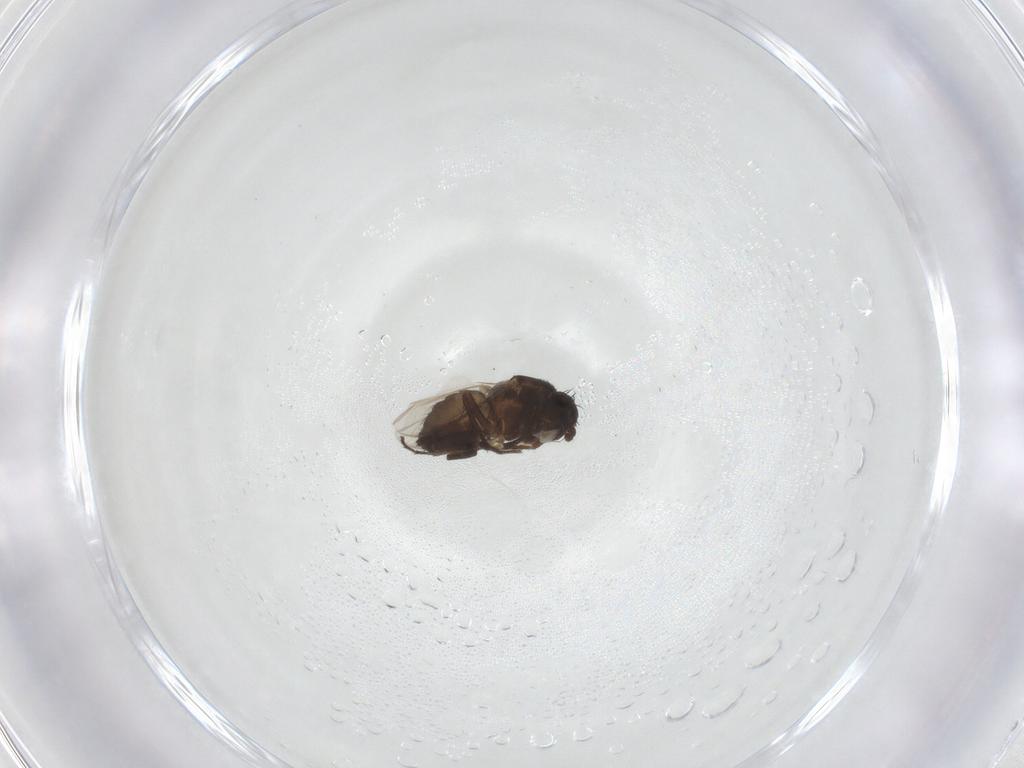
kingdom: Animalia
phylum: Arthropoda
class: Insecta
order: Diptera
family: Sphaeroceridae
